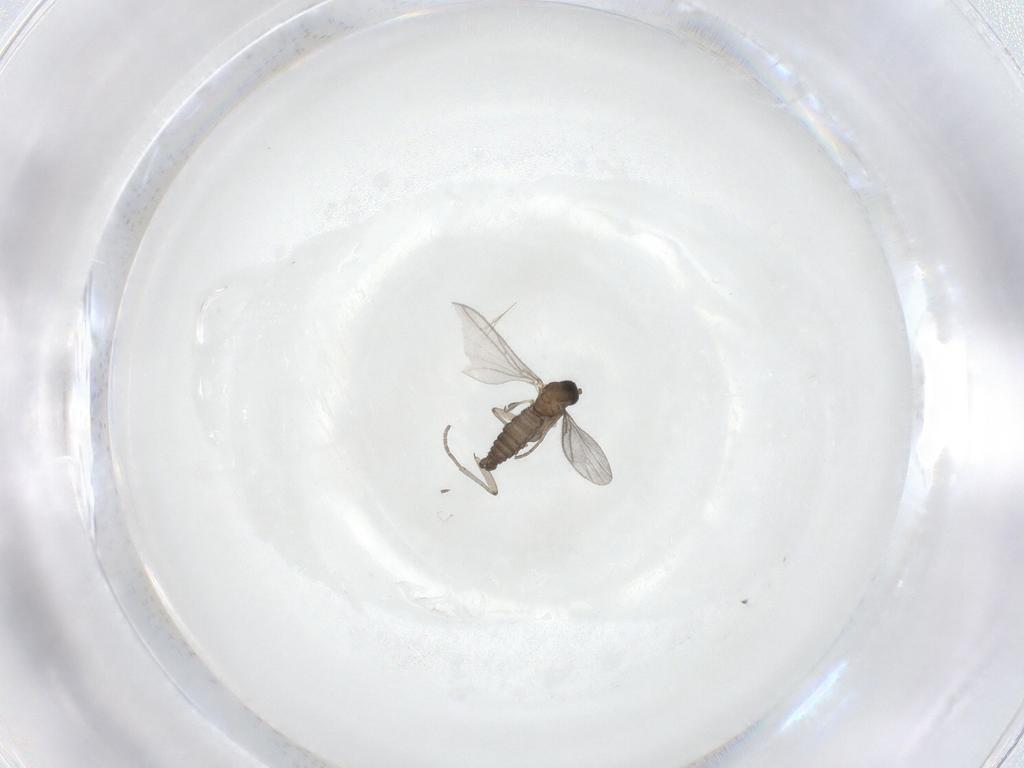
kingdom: Animalia
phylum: Arthropoda
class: Insecta
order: Diptera
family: Sciaridae
